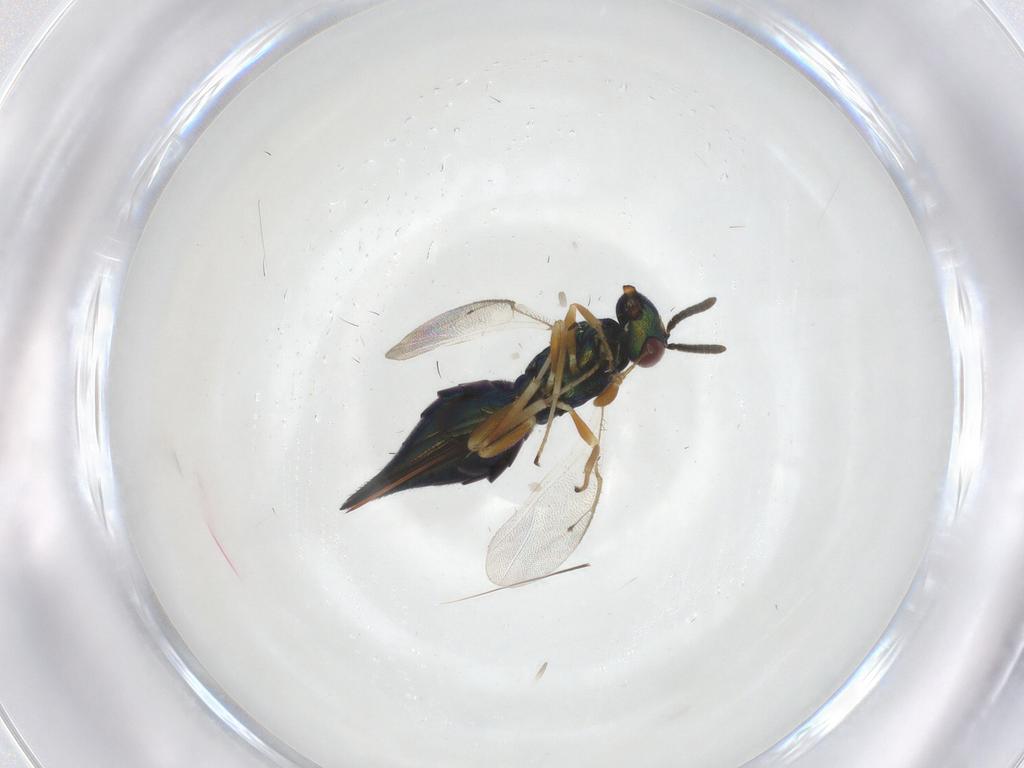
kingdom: Animalia
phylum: Arthropoda
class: Insecta
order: Hymenoptera
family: Pteromalidae
